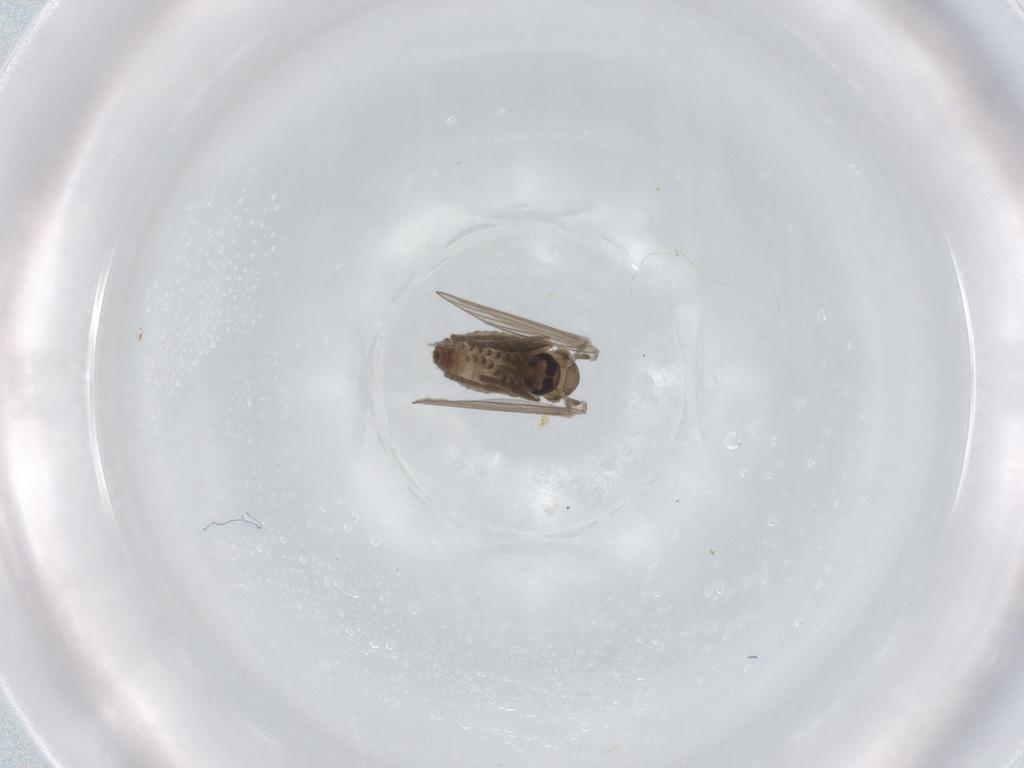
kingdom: Animalia
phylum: Arthropoda
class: Insecta
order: Diptera
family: Psychodidae
